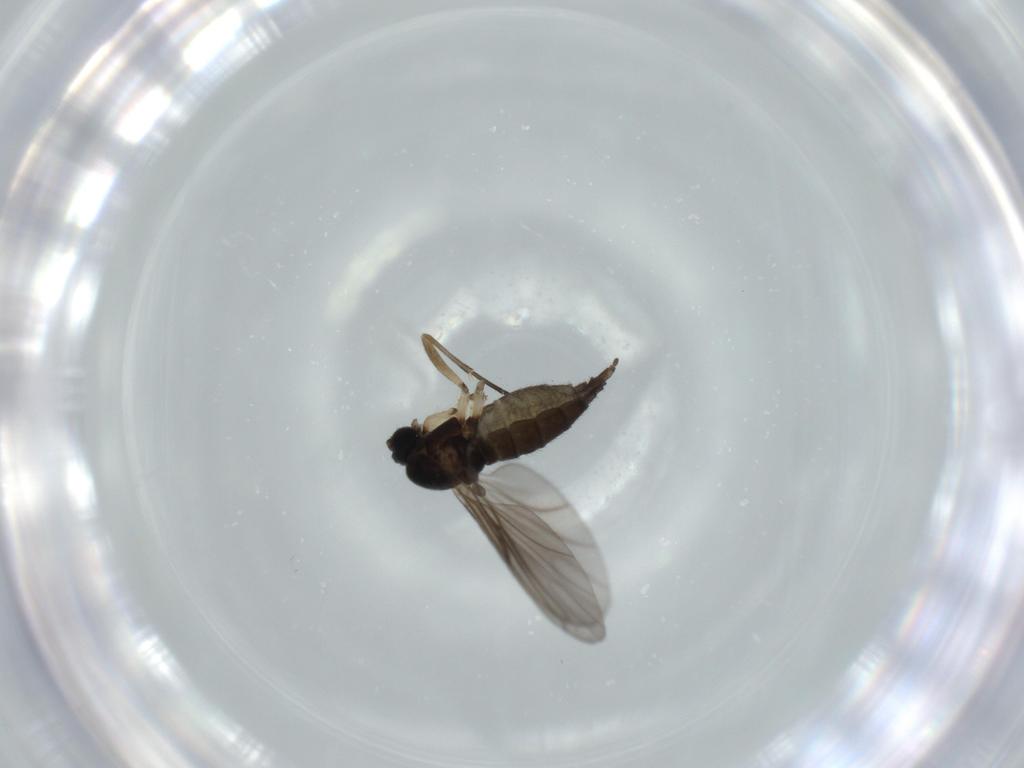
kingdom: Animalia
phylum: Arthropoda
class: Insecta
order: Diptera
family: Sciaridae
